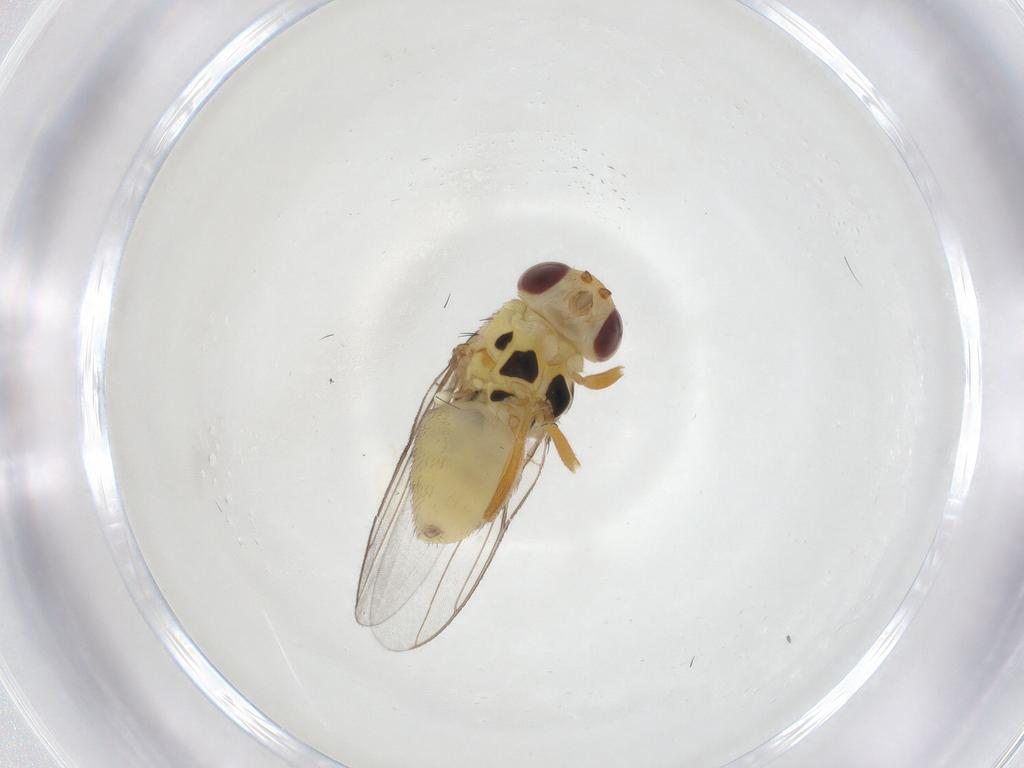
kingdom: Animalia
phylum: Arthropoda
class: Insecta
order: Diptera
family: Chloropidae
